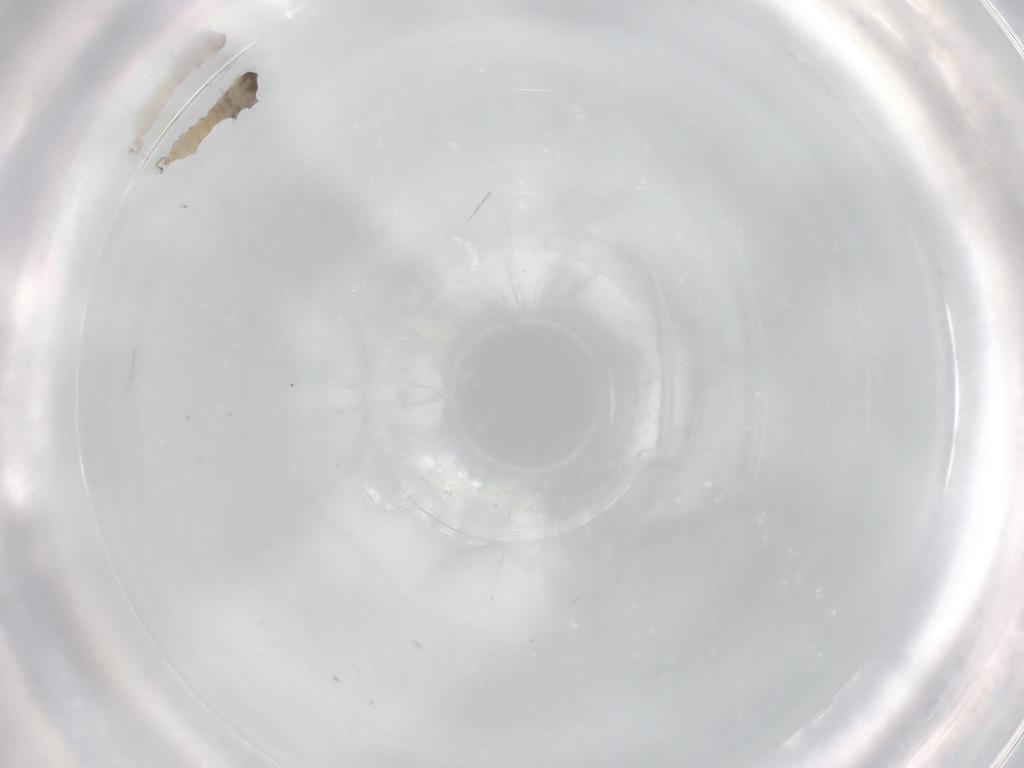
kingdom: Animalia
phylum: Arthropoda
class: Insecta
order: Diptera
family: Cecidomyiidae
